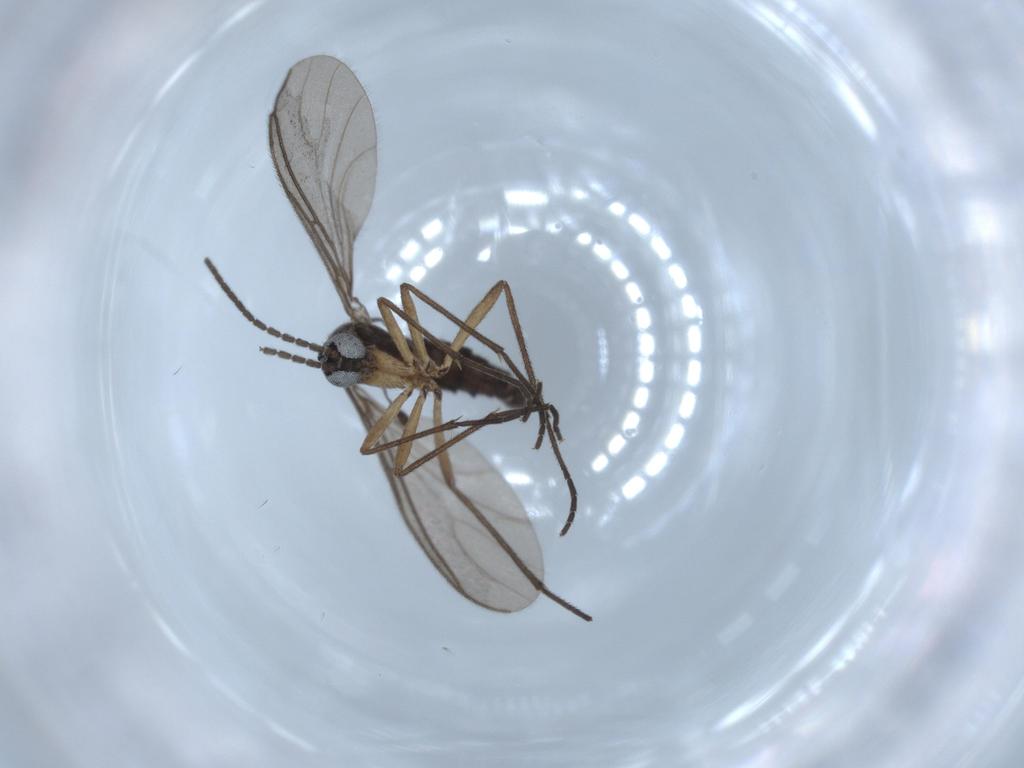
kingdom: Animalia
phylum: Arthropoda
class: Insecta
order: Diptera
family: Sciaridae
